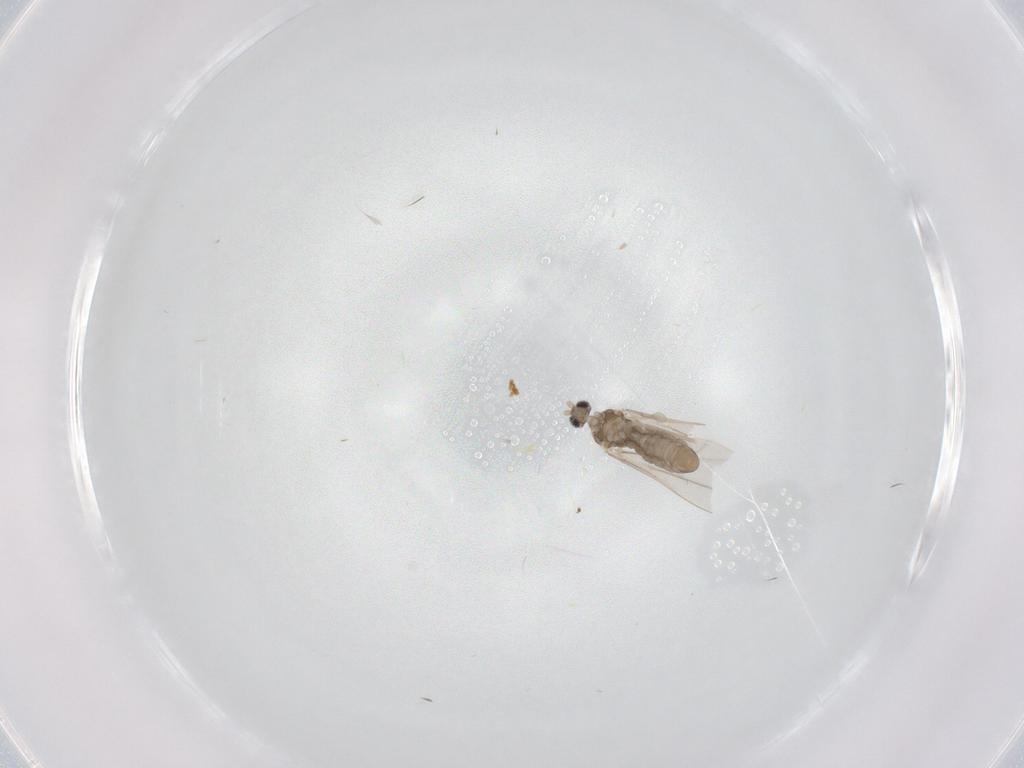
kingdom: Animalia
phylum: Arthropoda
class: Insecta
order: Diptera
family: Cecidomyiidae
